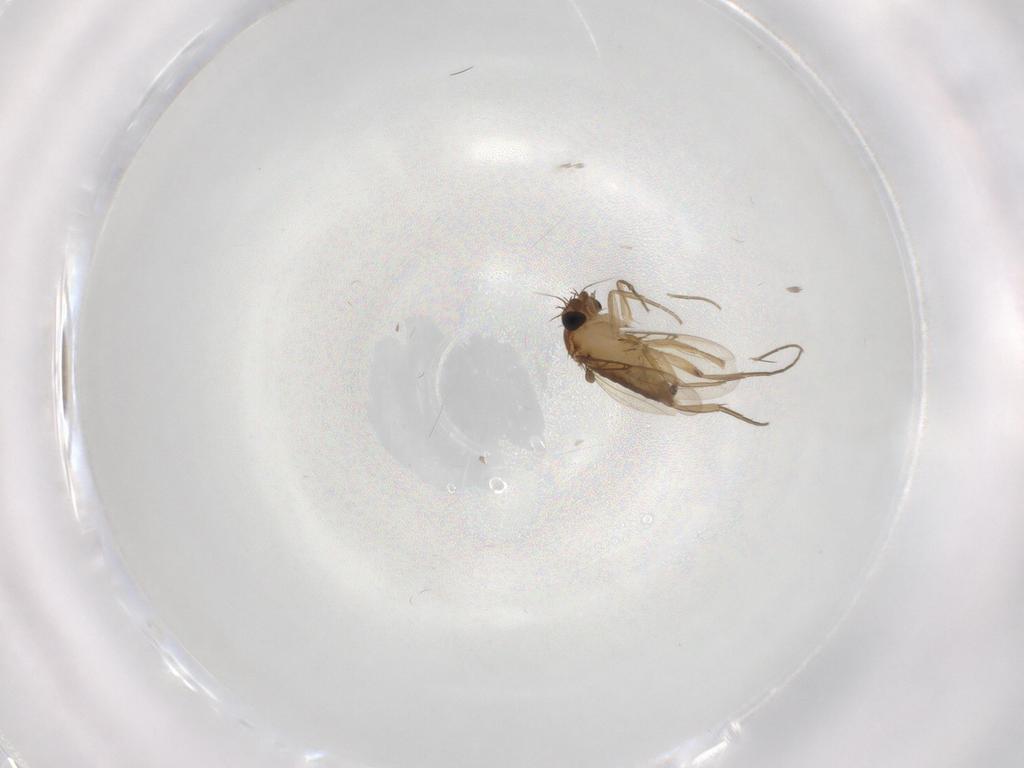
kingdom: Animalia
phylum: Arthropoda
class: Insecta
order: Diptera
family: Phoridae
